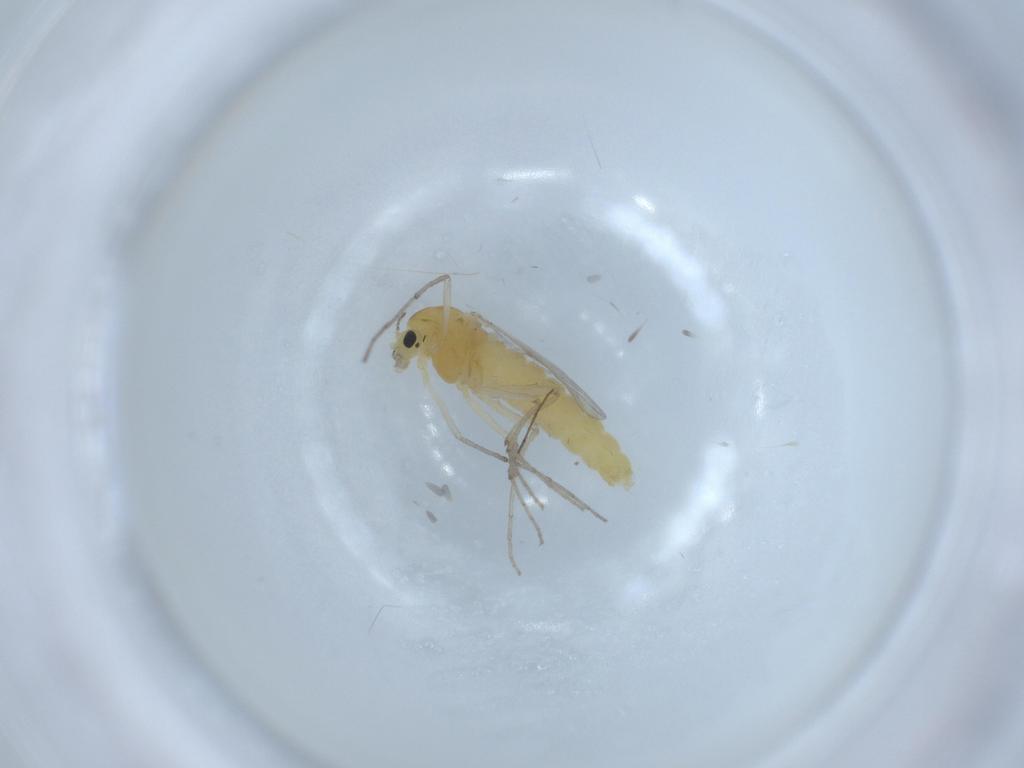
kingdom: Animalia
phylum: Arthropoda
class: Insecta
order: Diptera
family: Chironomidae
